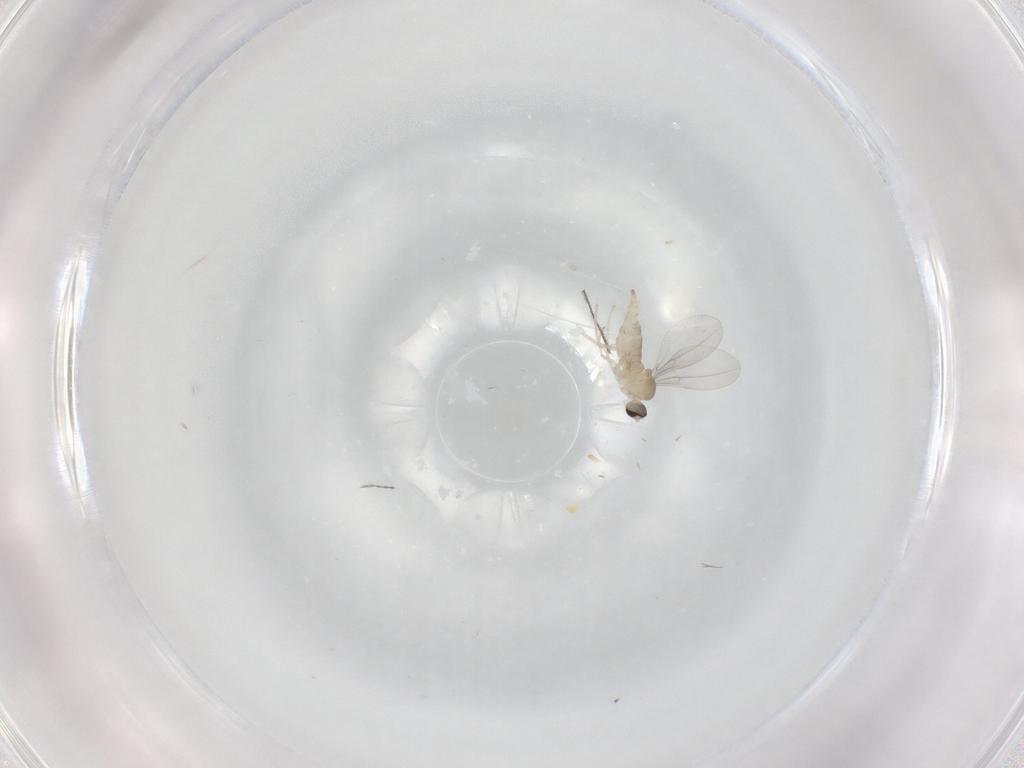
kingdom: Animalia
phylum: Arthropoda
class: Insecta
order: Diptera
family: Cecidomyiidae
